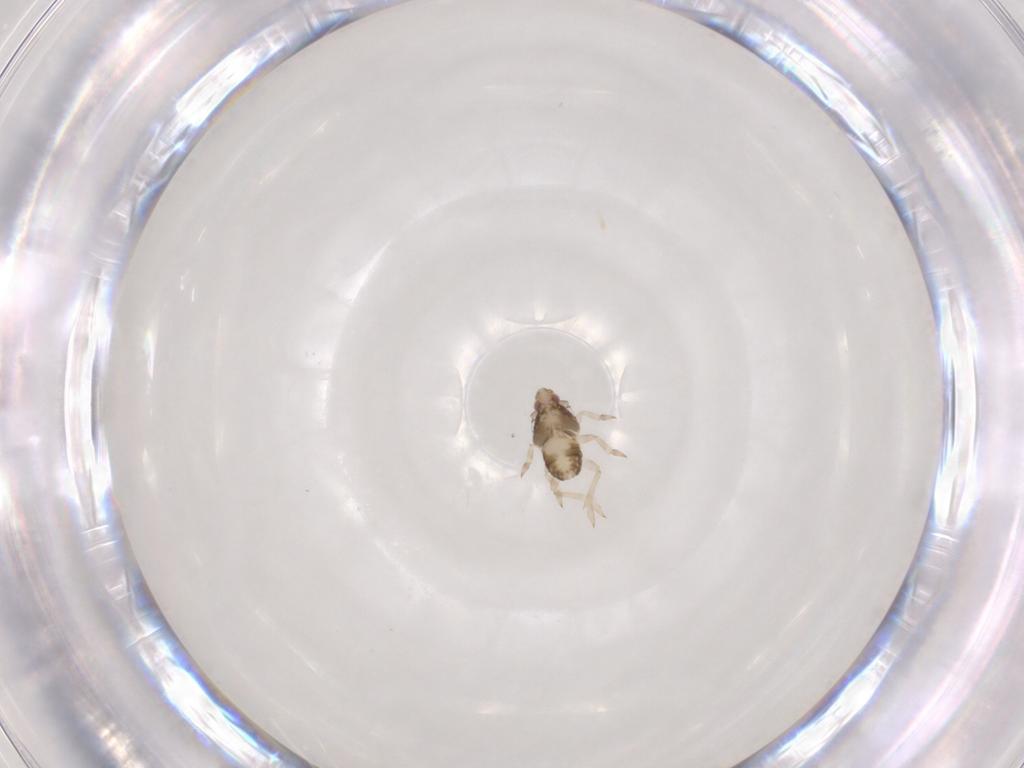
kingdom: Animalia
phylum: Arthropoda
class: Insecta
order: Hemiptera
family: Delphacidae
